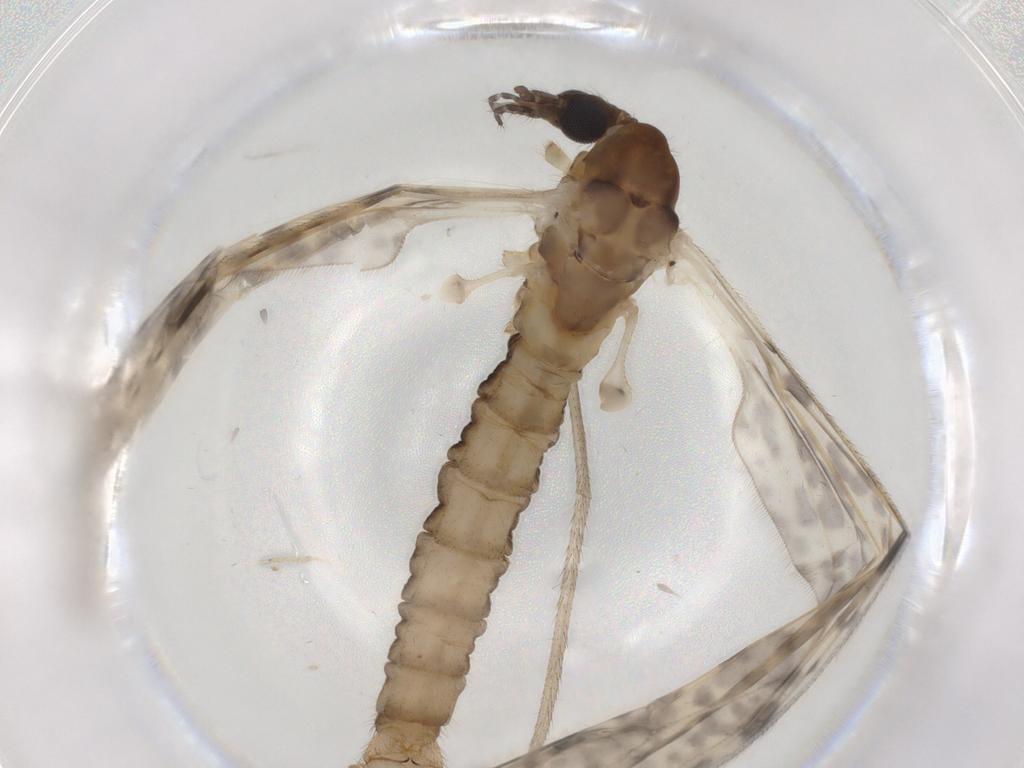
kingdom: Animalia
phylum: Arthropoda
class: Insecta
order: Diptera
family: Limoniidae
